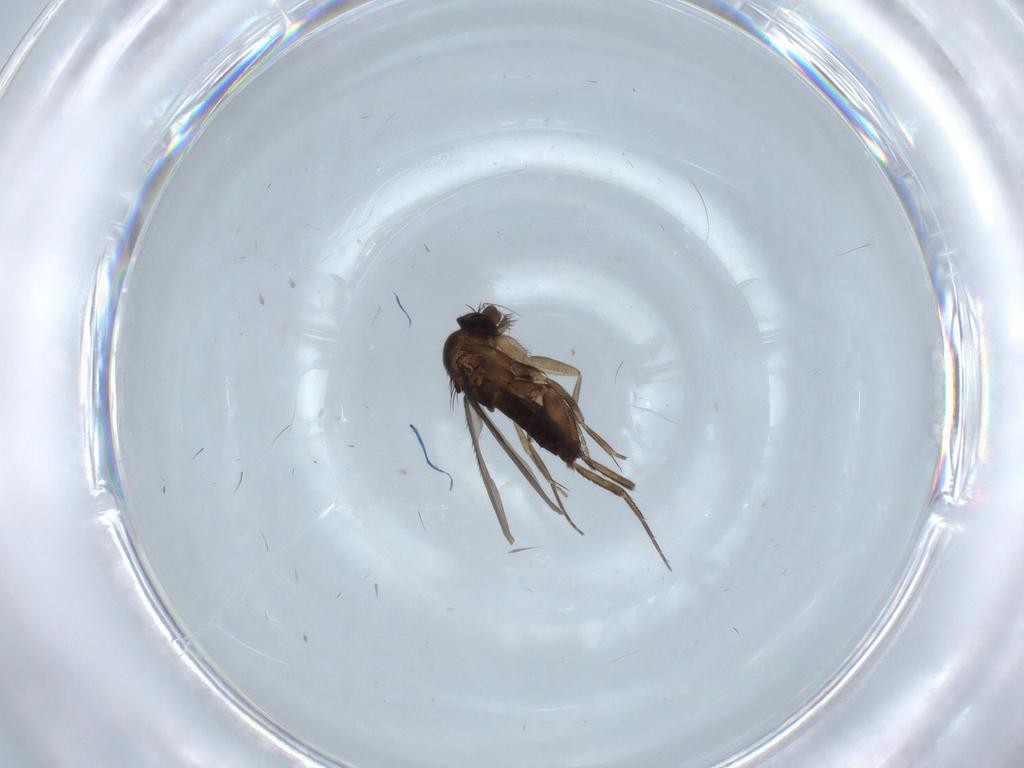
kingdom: Animalia
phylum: Arthropoda
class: Insecta
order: Diptera
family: Phoridae
